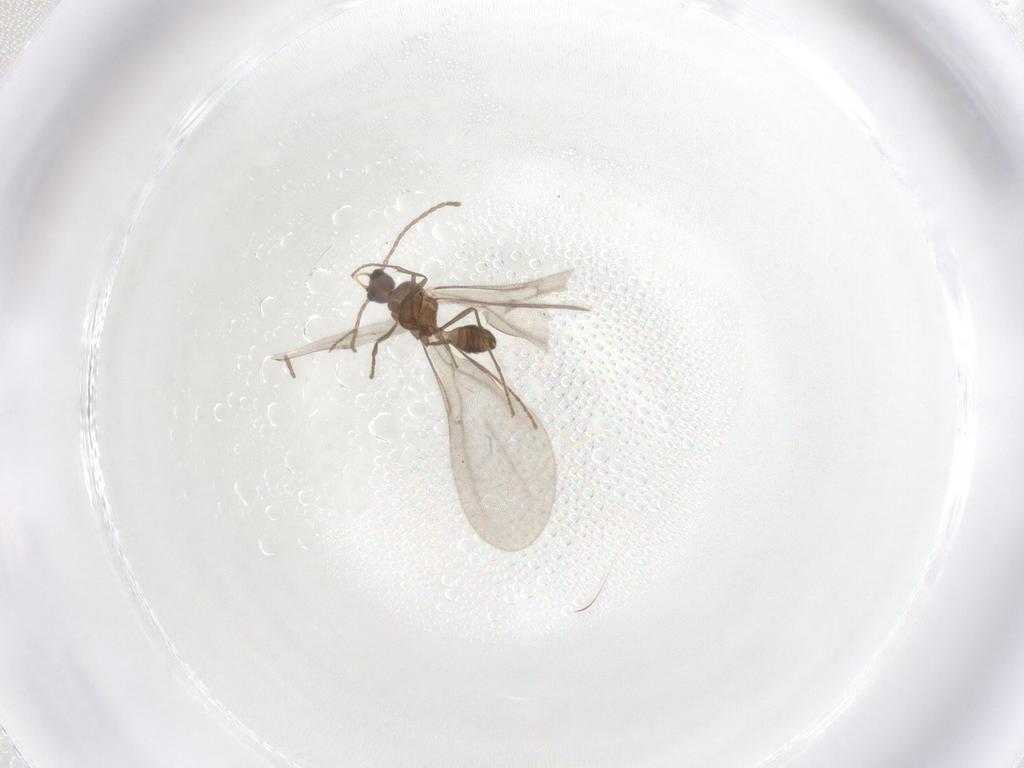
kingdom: Animalia
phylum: Arthropoda
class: Insecta
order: Hymenoptera
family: Formicidae
